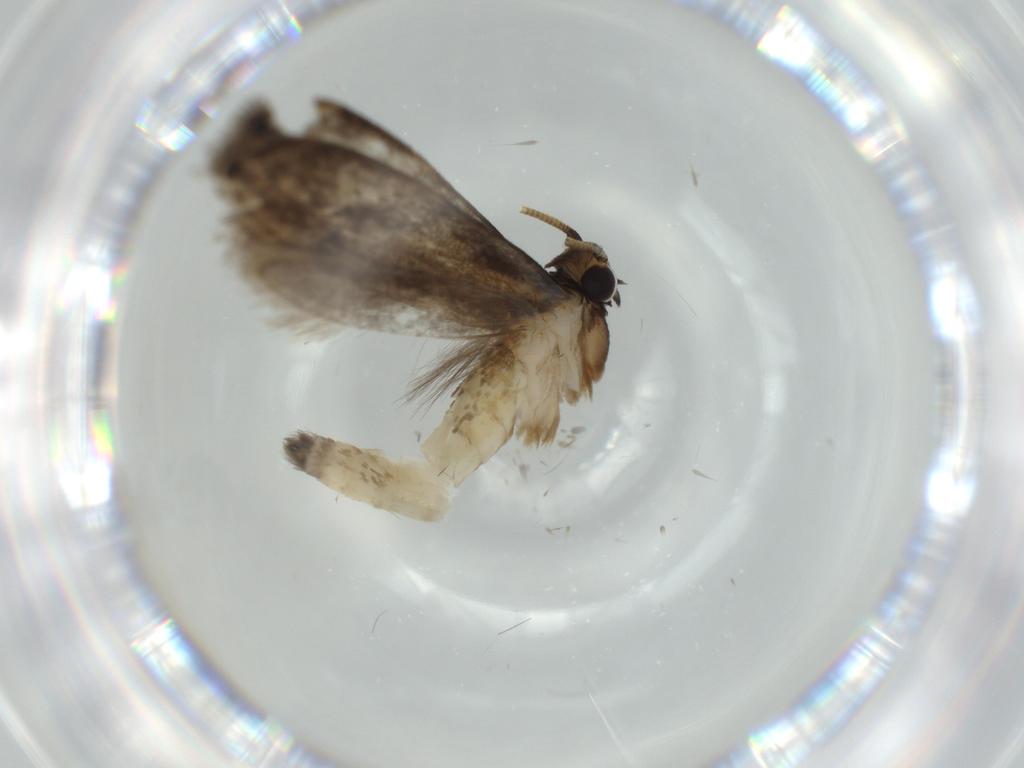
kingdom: Animalia
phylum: Arthropoda
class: Insecta
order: Lepidoptera
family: Tineidae
